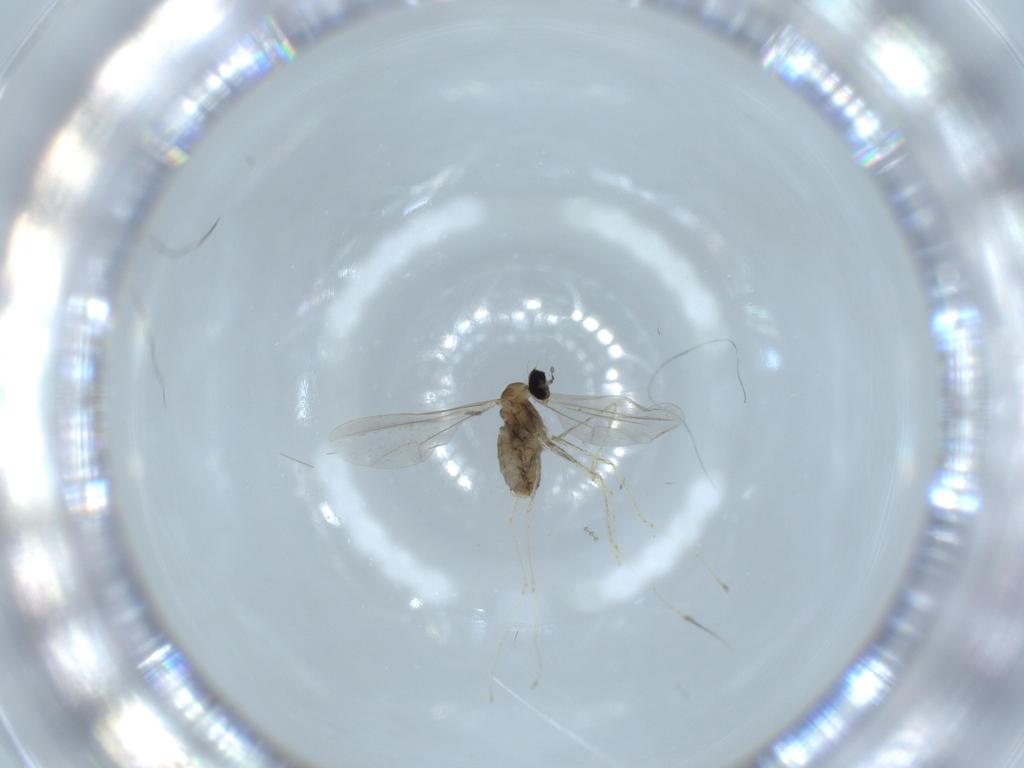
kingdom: Animalia
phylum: Arthropoda
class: Insecta
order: Diptera
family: Cecidomyiidae
